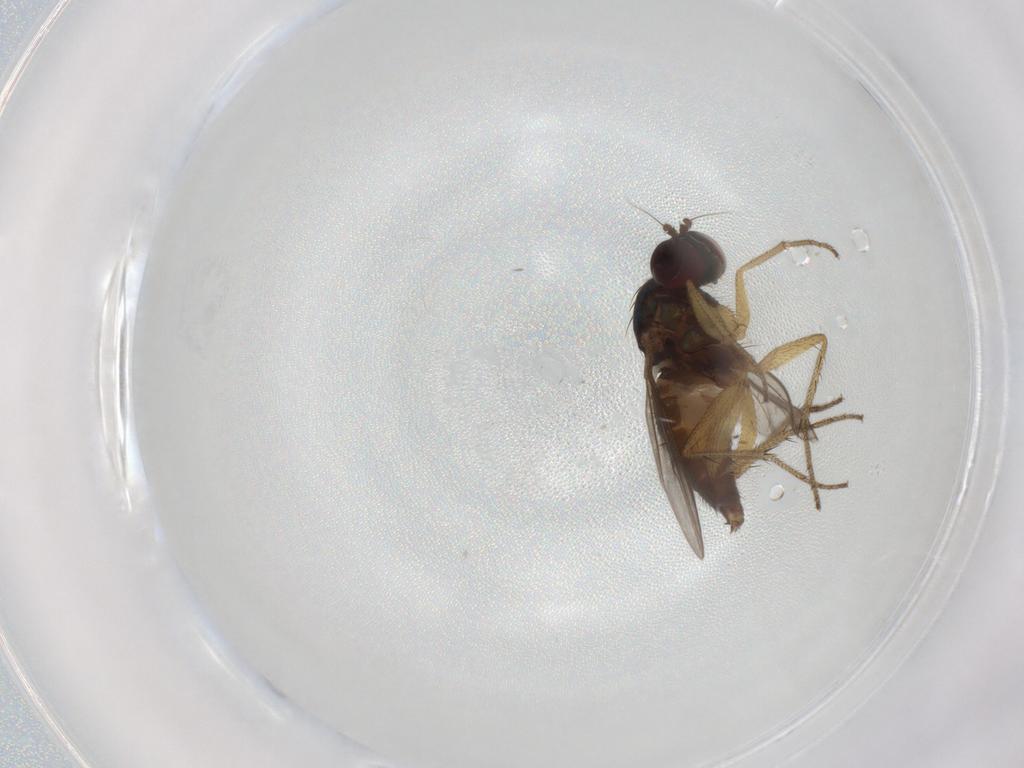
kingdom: Animalia
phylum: Arthropoda
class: Insecta
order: Diptera
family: Dolichopodidae
